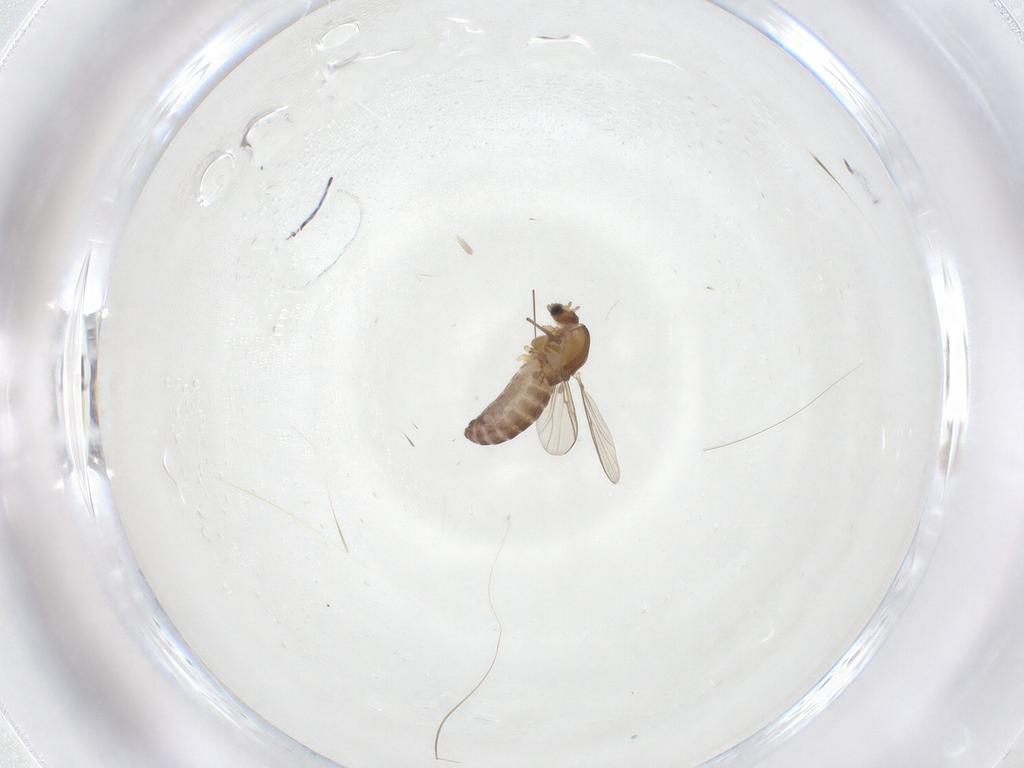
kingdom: Animalia
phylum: Arthropoda
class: Insecta
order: Diptera
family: Chironomidae
